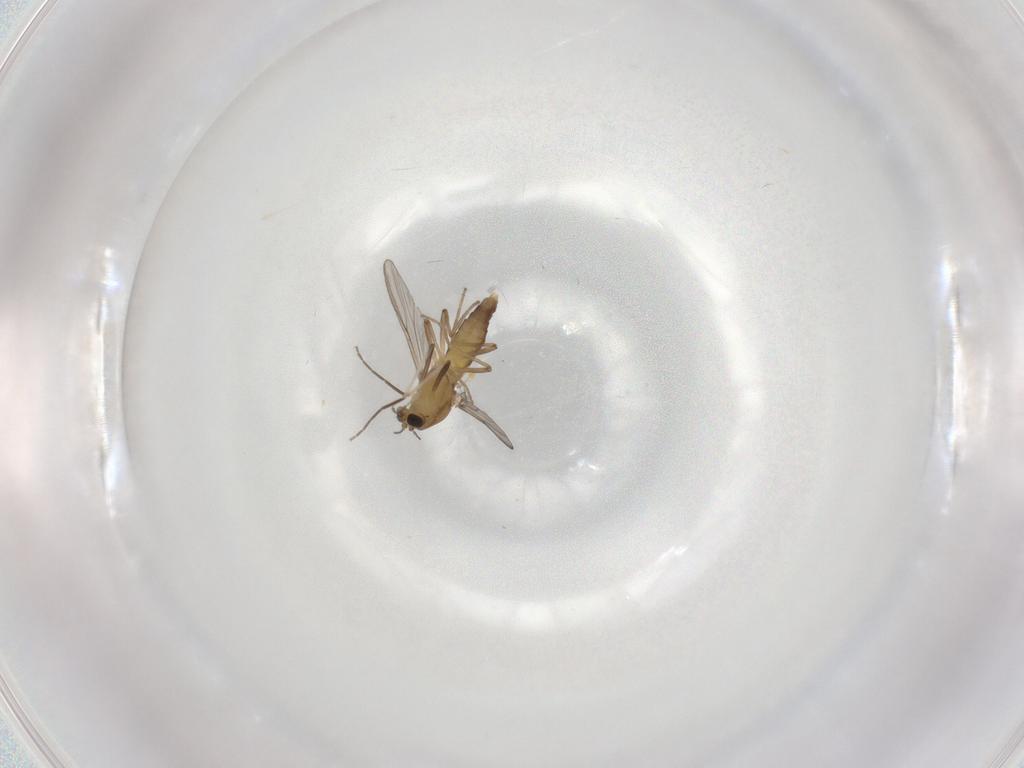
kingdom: Animalia
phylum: Arthropoda
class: Insecta
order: Diptera
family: Chironomidae
